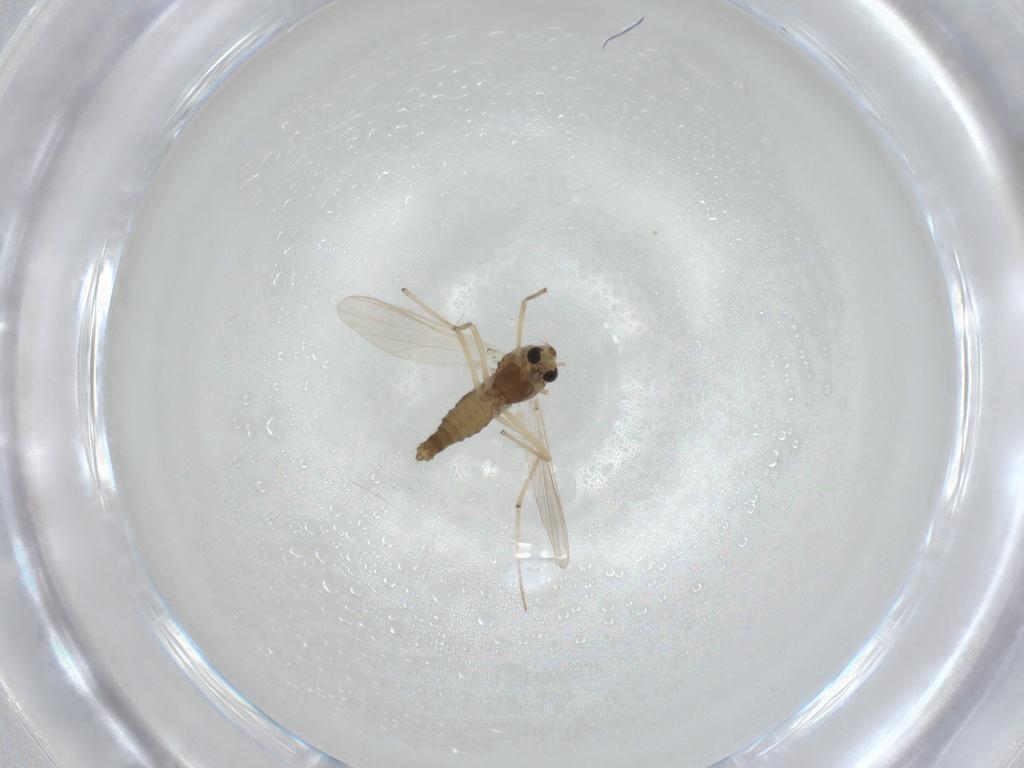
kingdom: Animalia
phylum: Arthropoda
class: Insecta
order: Diptera
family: Chironomidae
